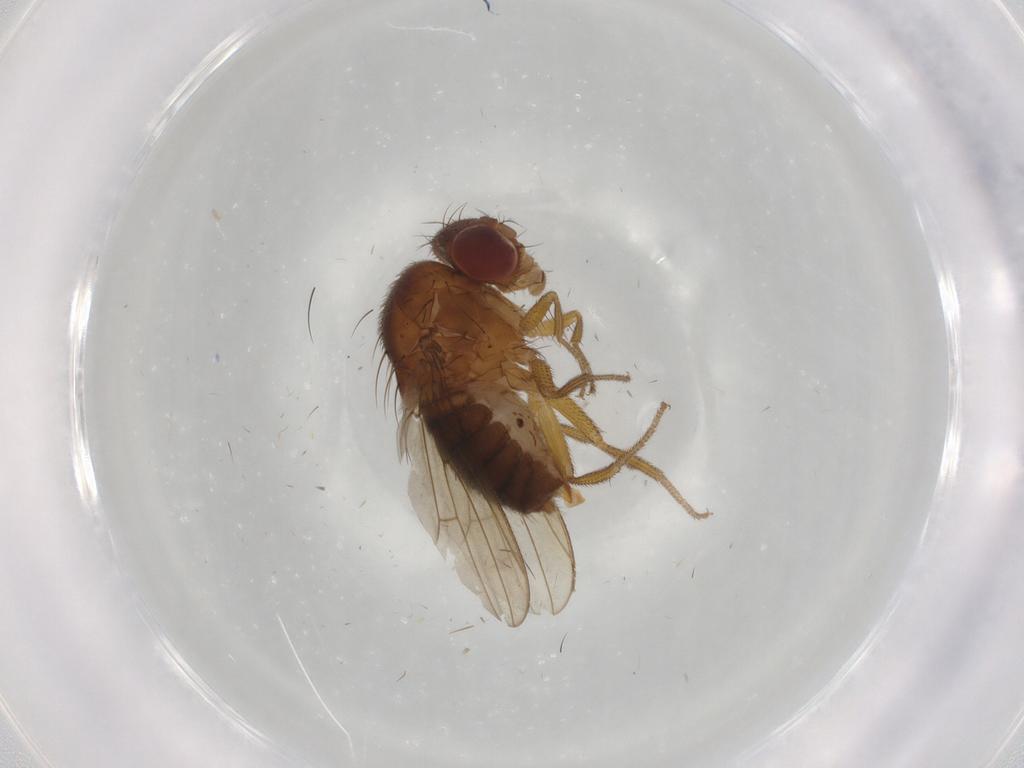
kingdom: Animalia
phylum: Arthropoda
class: Insecta
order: Diptera
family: Drosophilidae
